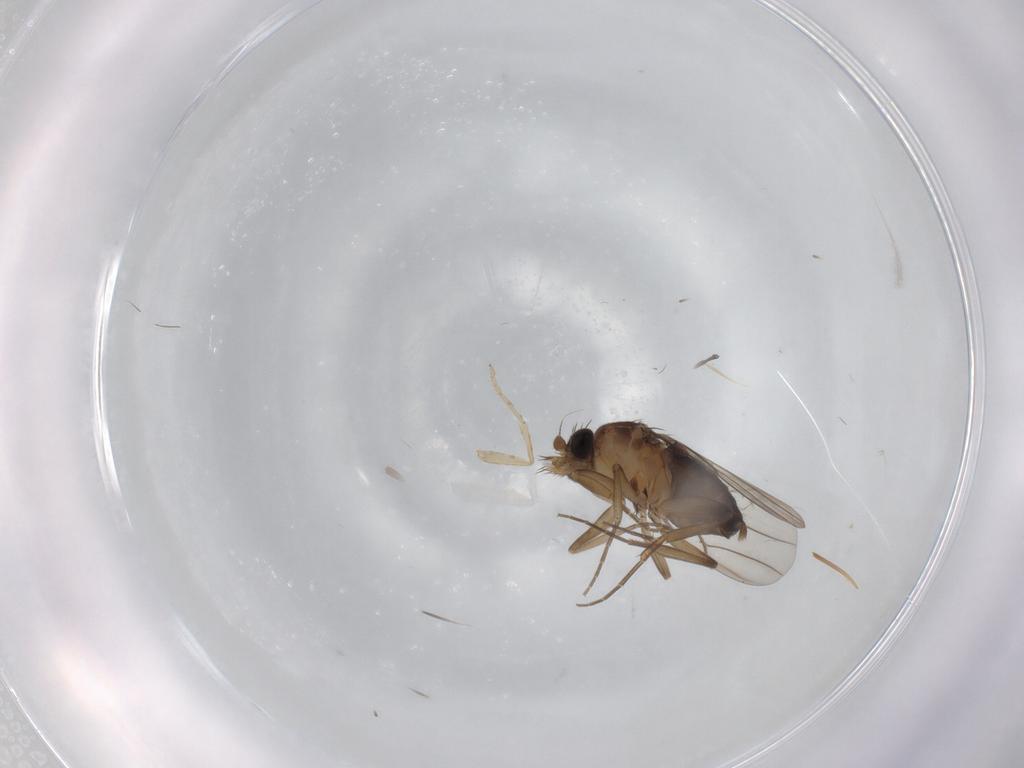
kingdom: Animalia
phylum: Arthropoda
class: Insecta
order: Diptera
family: Phoridae
